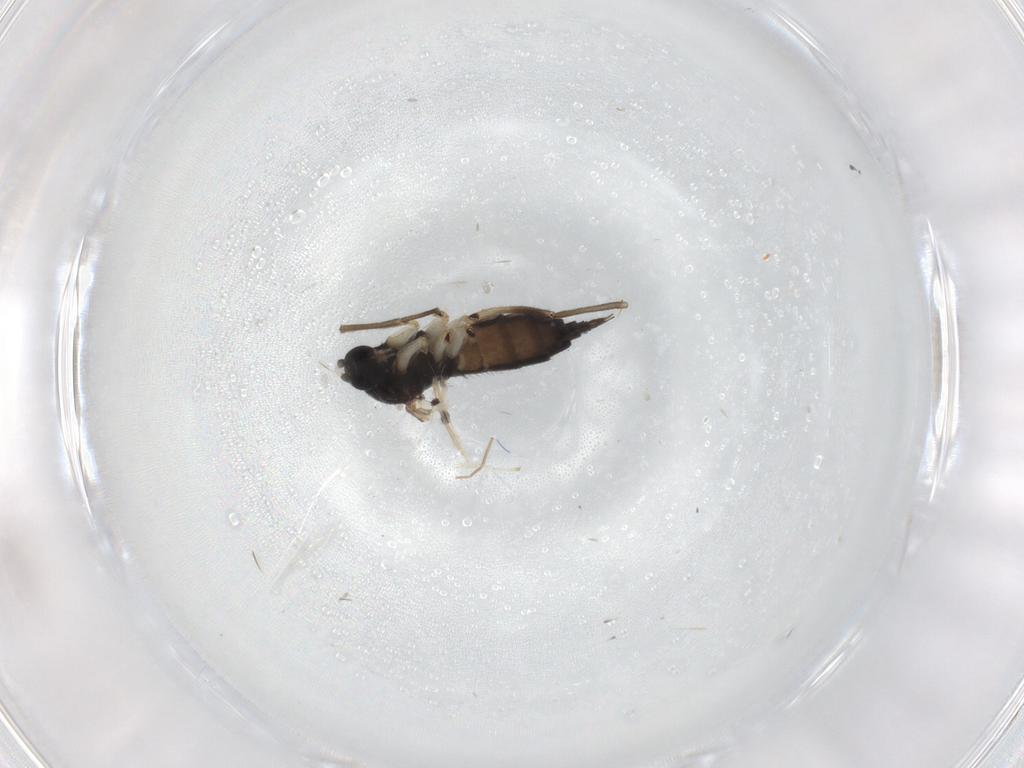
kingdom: Animalia
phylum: Arthropoda
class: Insecta
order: Diptera
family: Sciaridae
